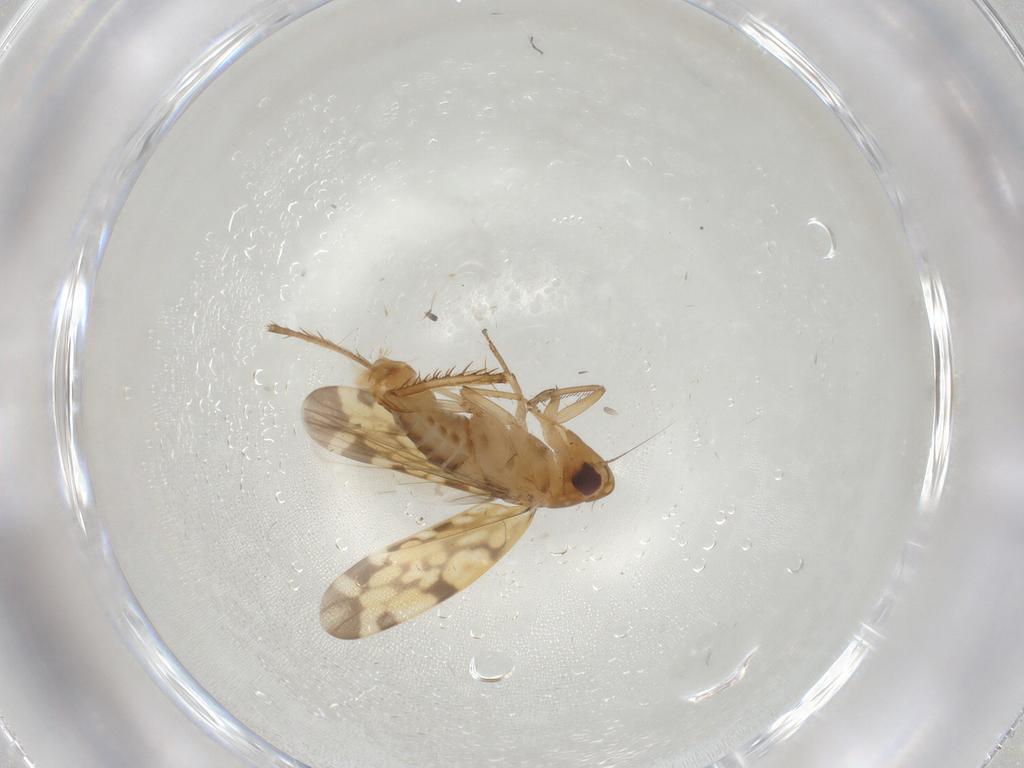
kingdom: Animalia
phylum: Arthropoda
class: Insecta
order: Hemiptera
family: Cicadellidae
